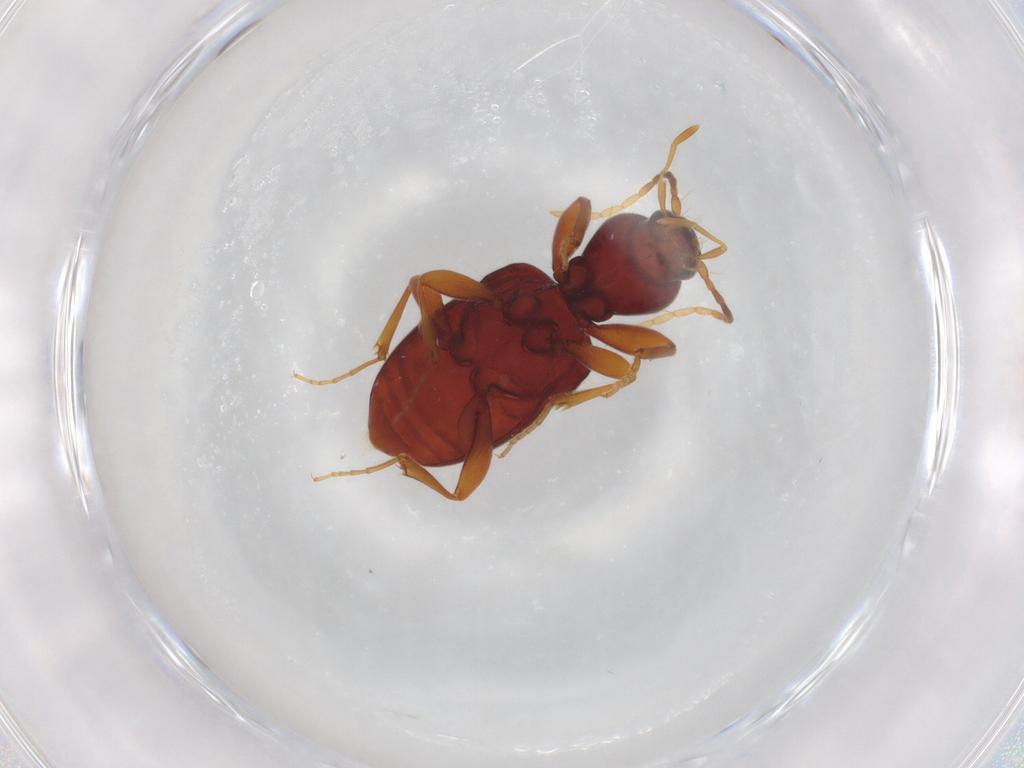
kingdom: Animalia
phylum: Arthropoda
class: Insecta
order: Coleoptera
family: Carabidae
